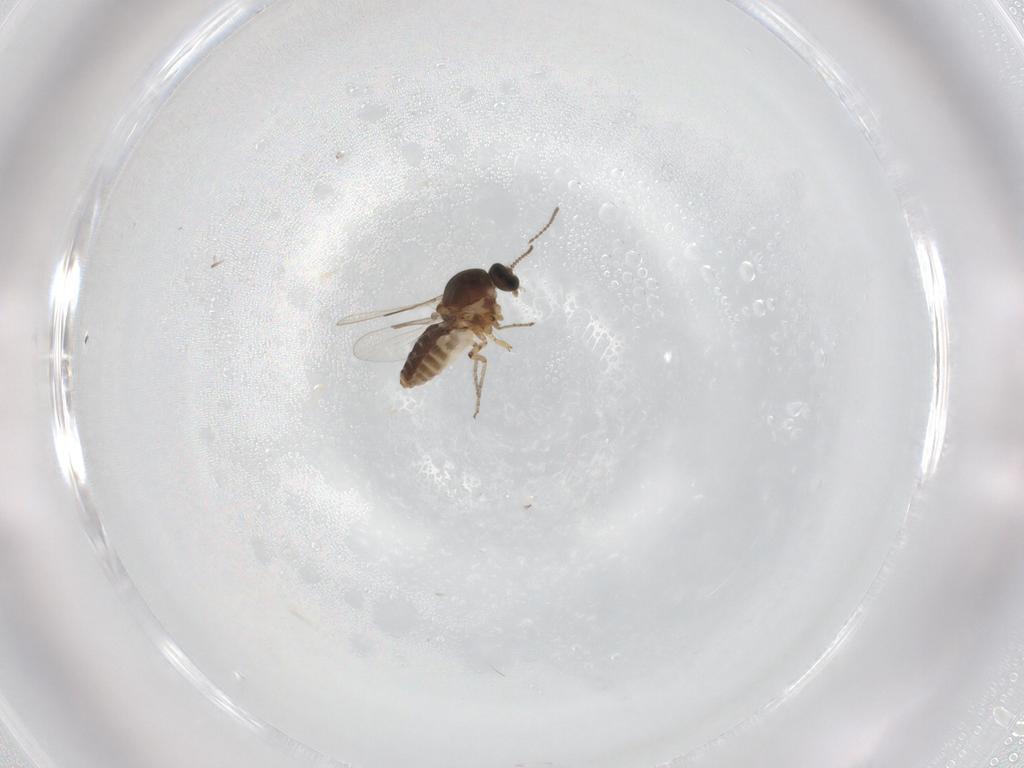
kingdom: Animalia
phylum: Arthropoda
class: Insecta
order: Diptera
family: Ceratopogonidae
